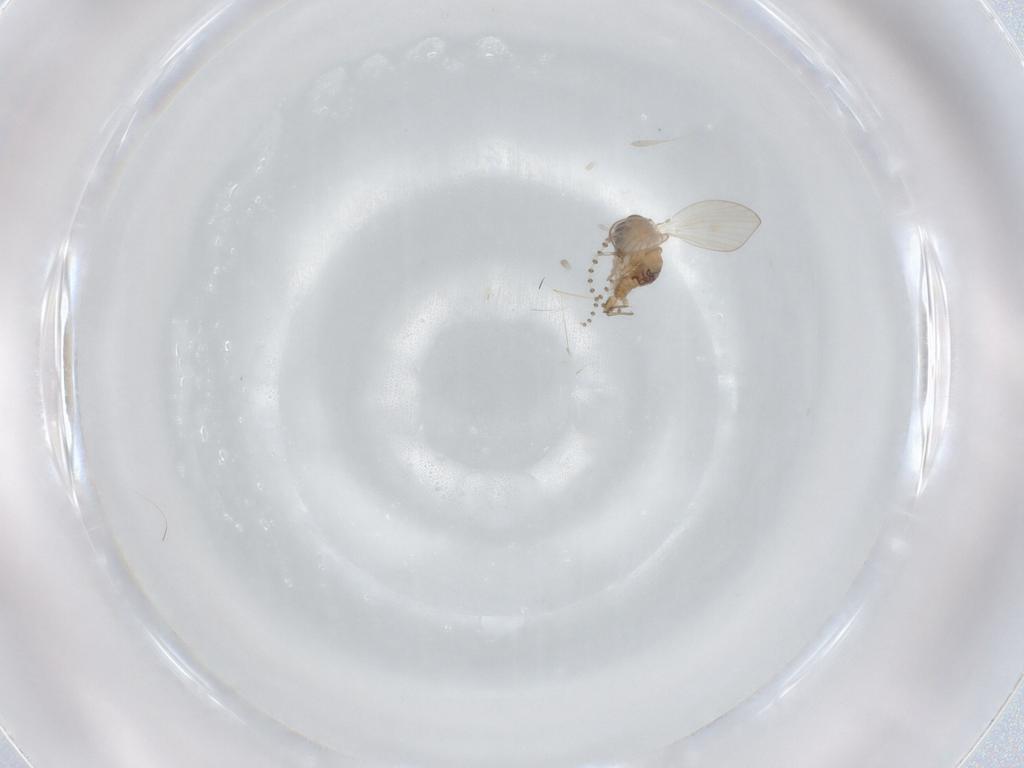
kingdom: Animalia
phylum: Arthropoda
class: Insecta
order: Diptera
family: Psychodidae
